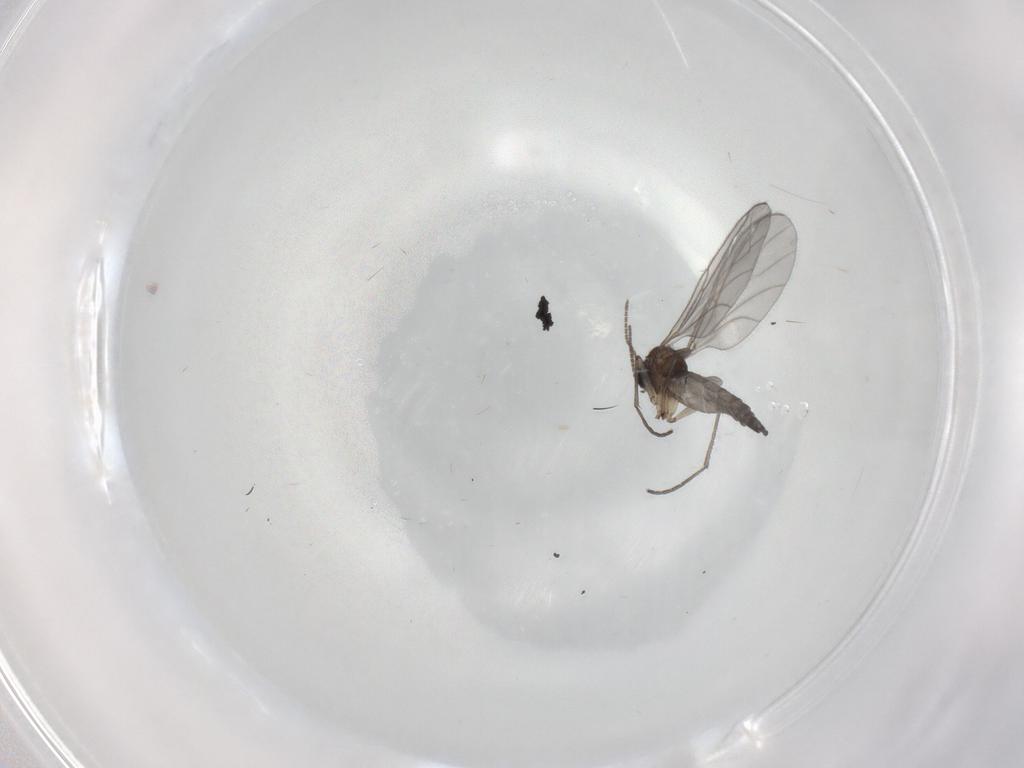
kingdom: Animalia
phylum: Arthropoda
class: Insecta
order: Diptera
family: Sciaridae
